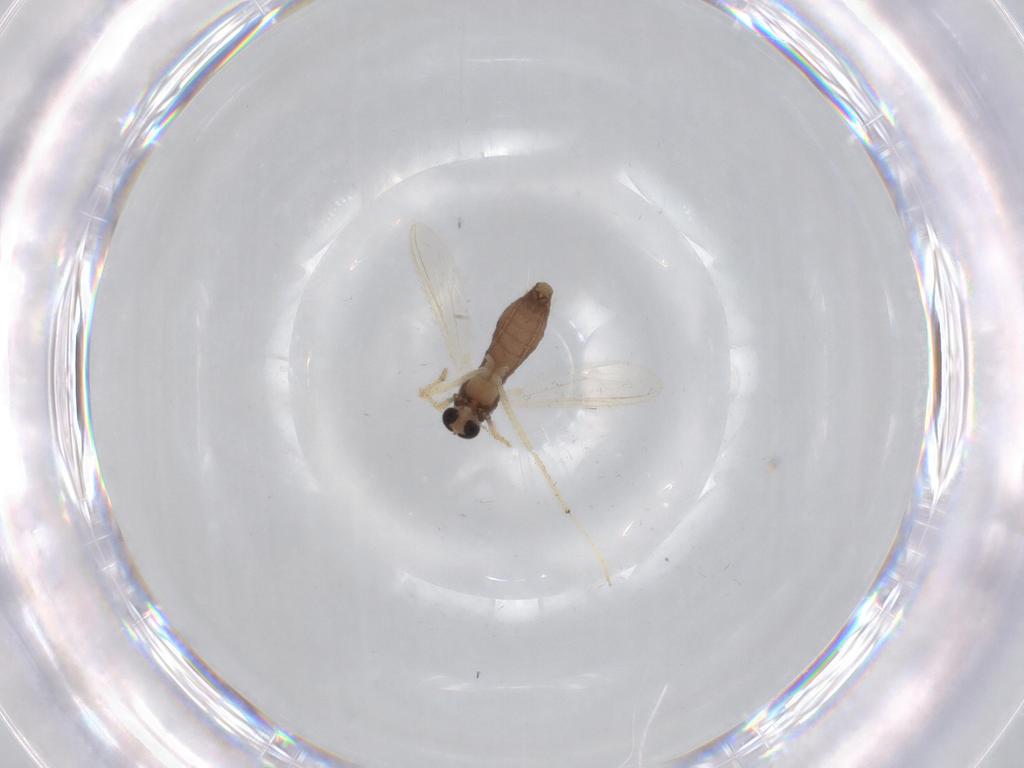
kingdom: Animalia
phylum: Arthropoda
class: Insecta
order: Diptera
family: Chironomidae
